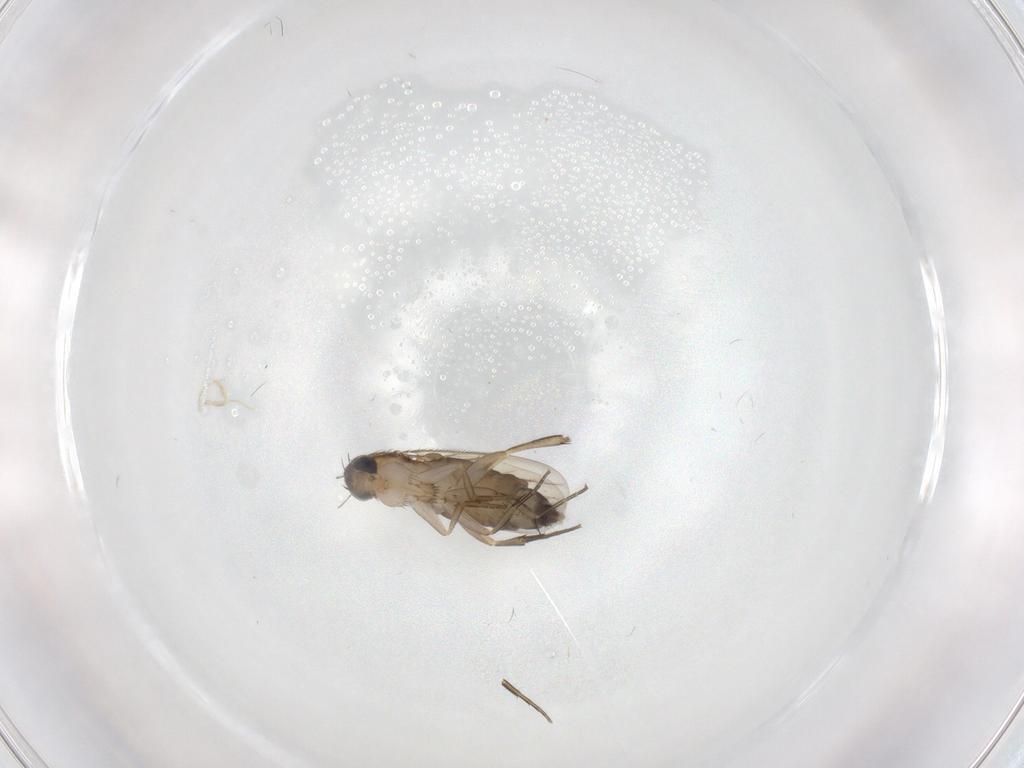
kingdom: Animalia
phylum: Arthropoda
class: Insecta
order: Diptera
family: Phoridae
